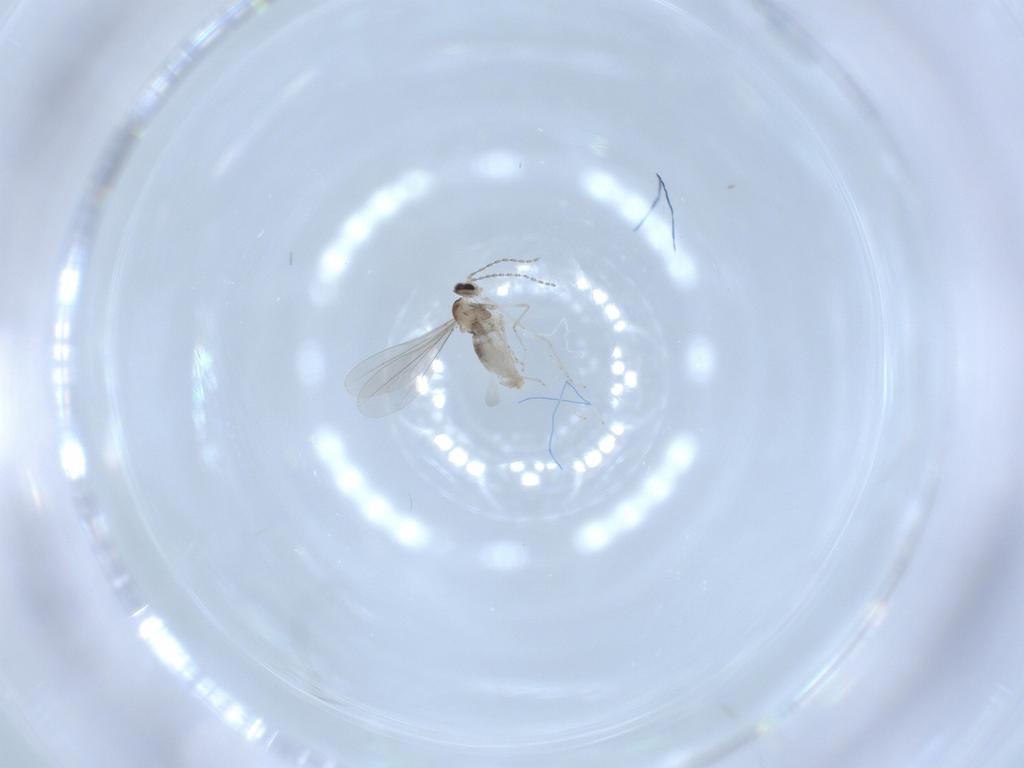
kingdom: Animalia
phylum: Arthropoda
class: Insecta
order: Diptera
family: Cecidomyiidae
